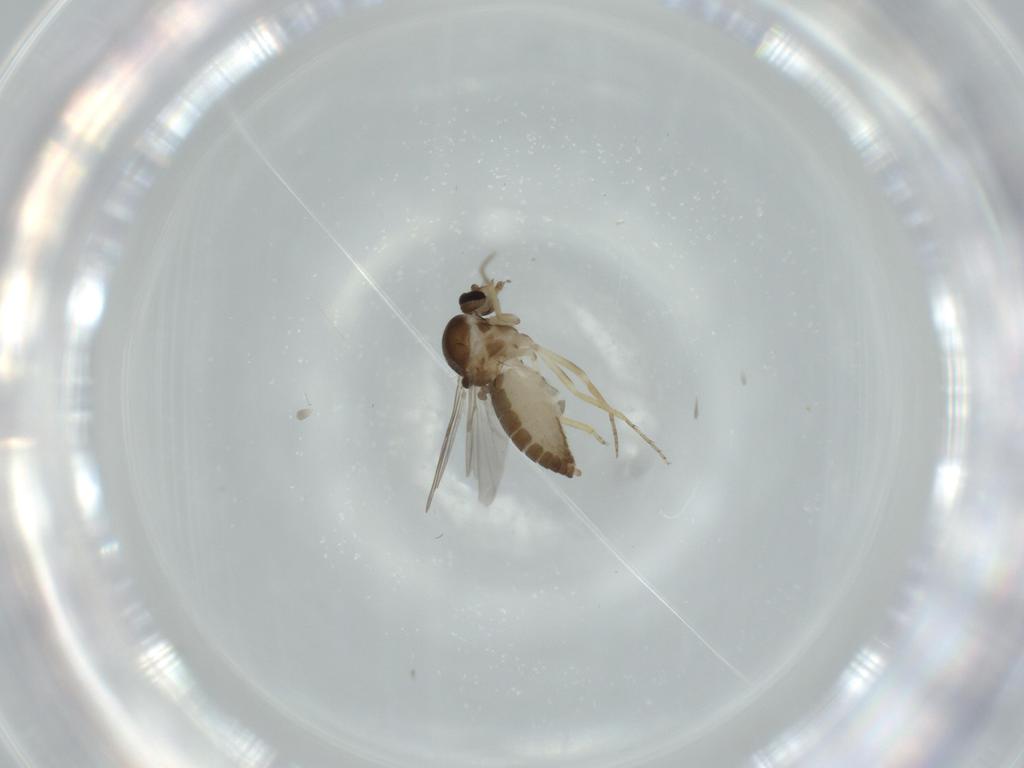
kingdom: Animalia
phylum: Arthropoda
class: Insecta
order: Diptera
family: Ceratopogonidae
